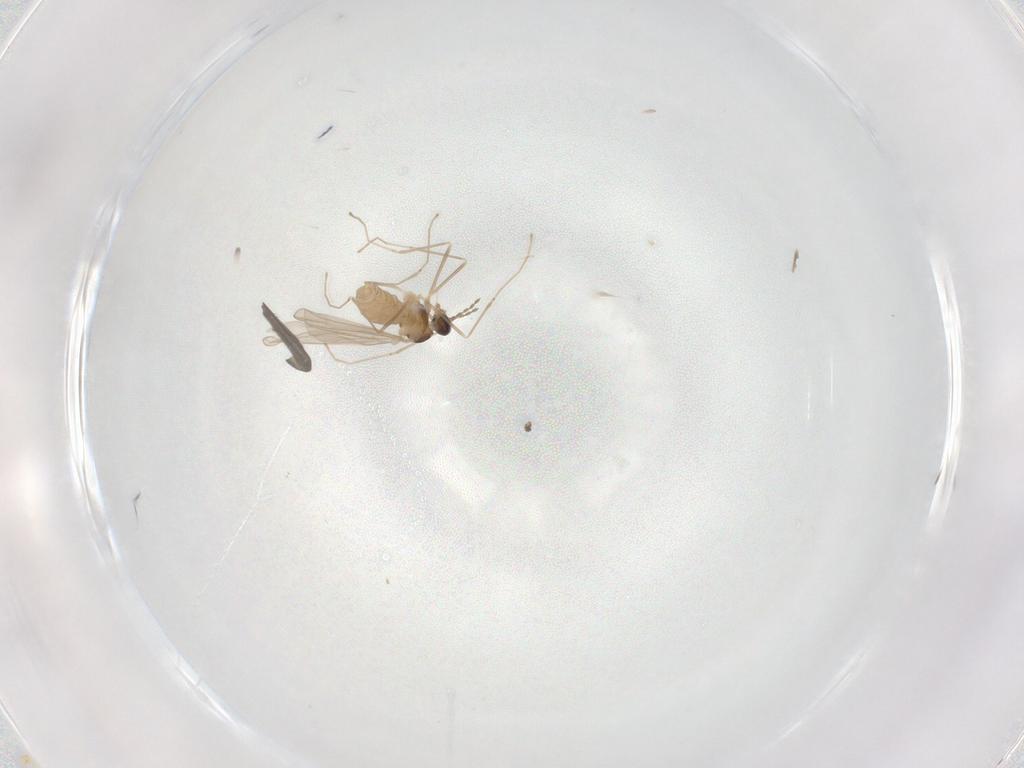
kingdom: Animalia
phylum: Arthropoda
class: Insecta
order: Diptera
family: Cecidomyiidae
